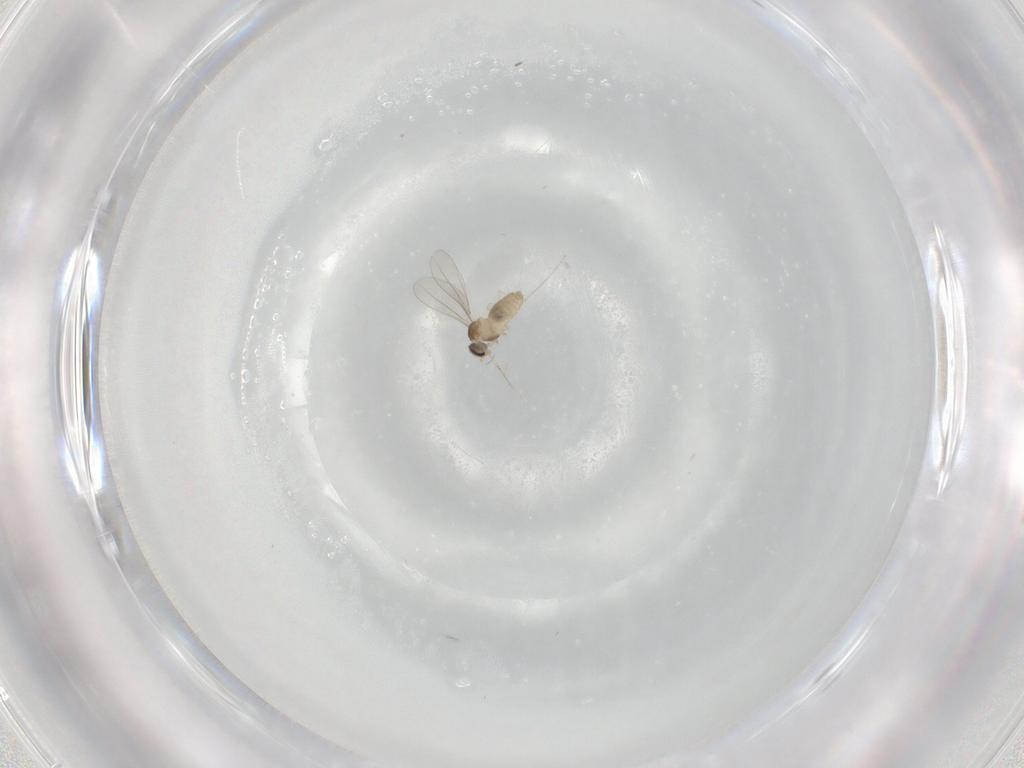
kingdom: Animalia
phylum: Arthropoda
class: Insecta
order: Diptera
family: Cecidomyiidae
